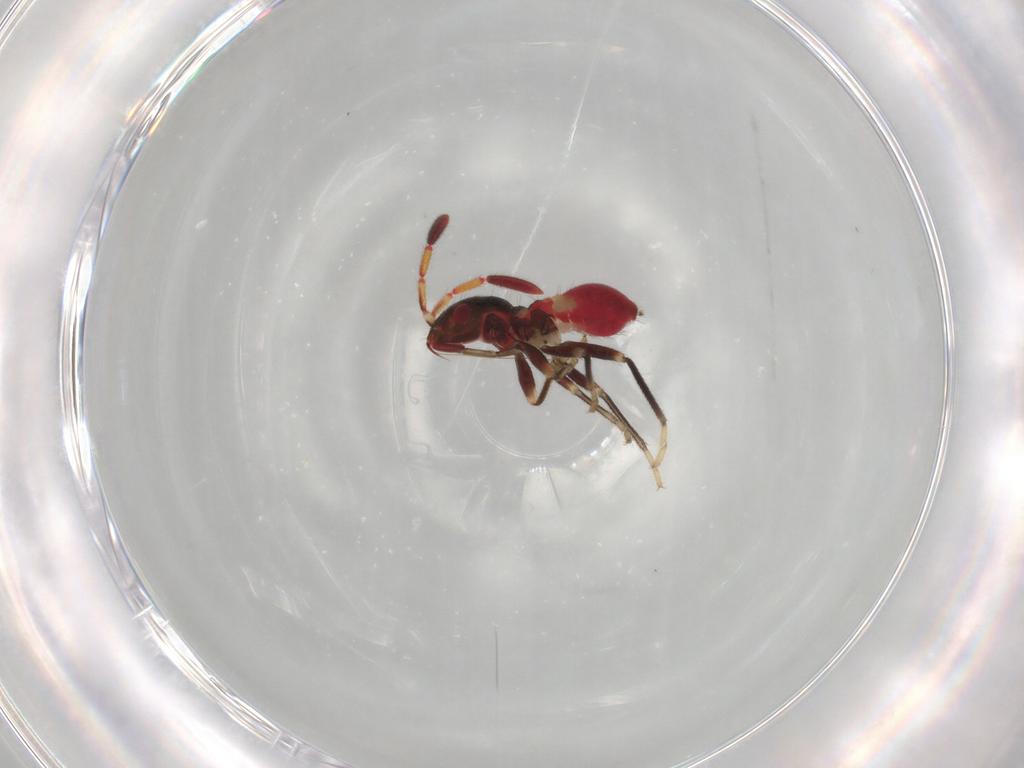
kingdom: Animalia
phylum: Arthropoda
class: Insecta
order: Hemiptera
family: Rhyparochromidae
